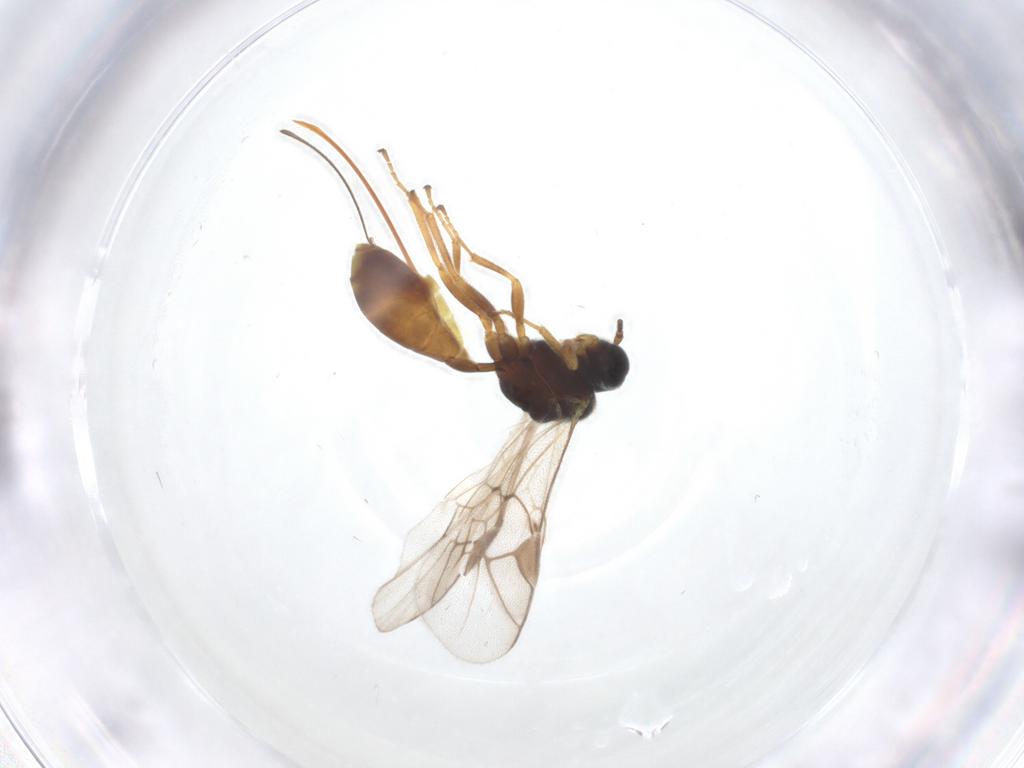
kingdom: Animalia
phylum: Arthropoda
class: Insecta
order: Hymenoptera
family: Ichneumonidae
